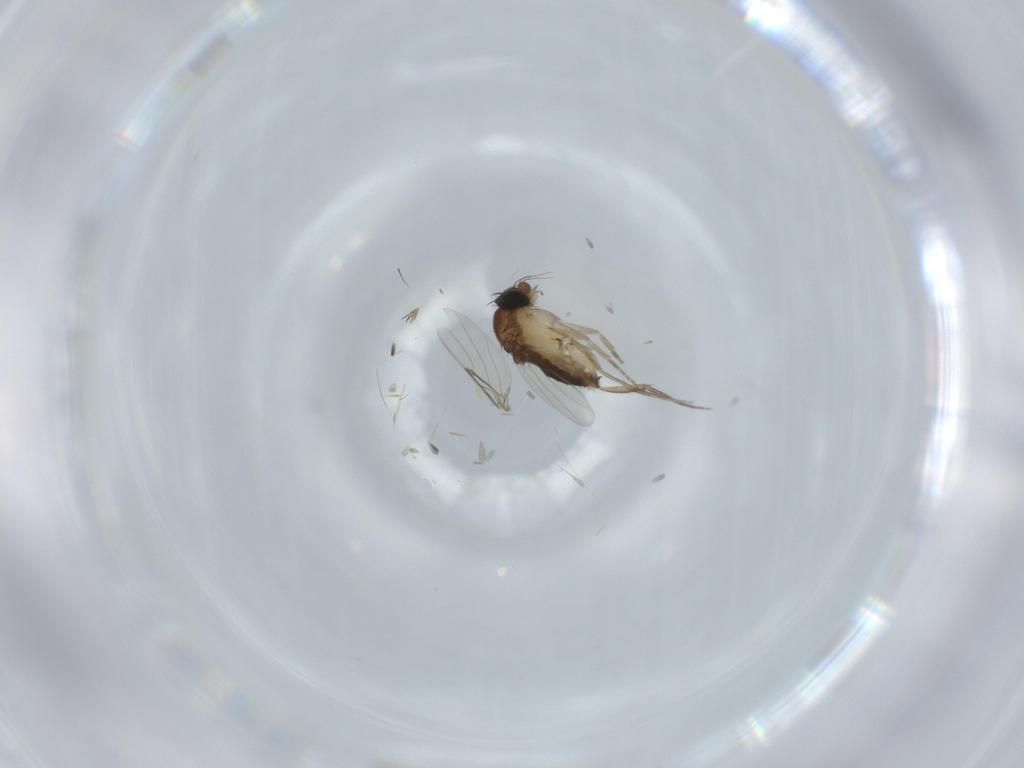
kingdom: Animalia
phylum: Arthropoda
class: Insecta
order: Diptera
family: Phoridae
